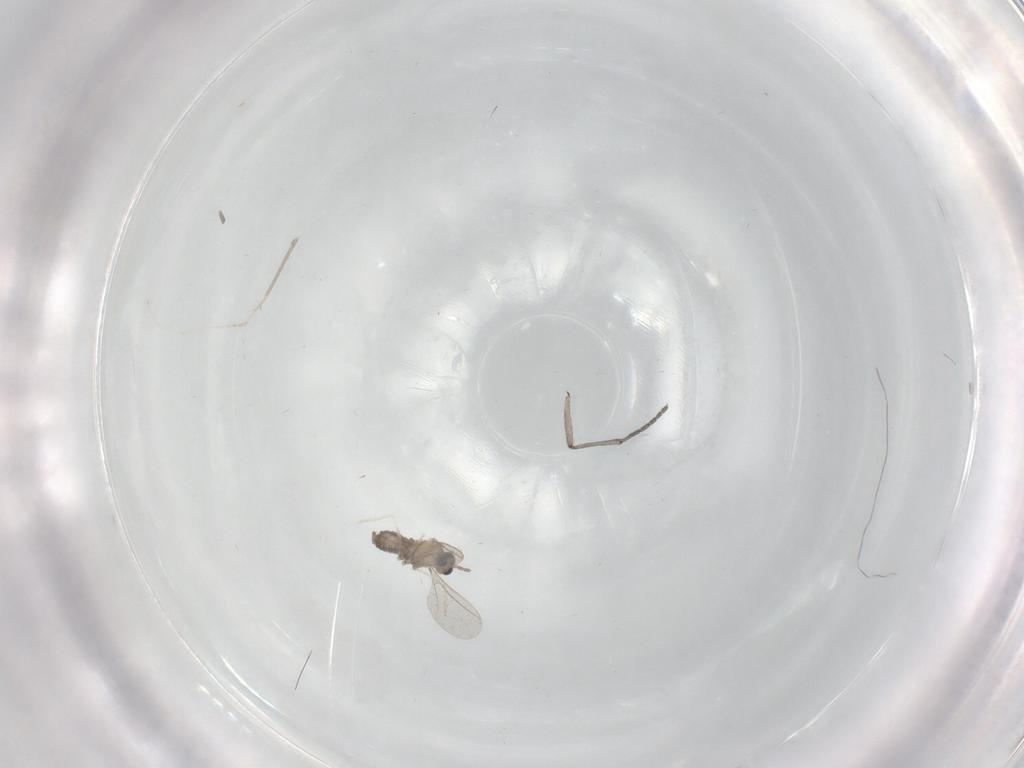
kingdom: Animalia
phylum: Arthropoda
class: Insecta
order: Diptera
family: Cecidomyiidae
